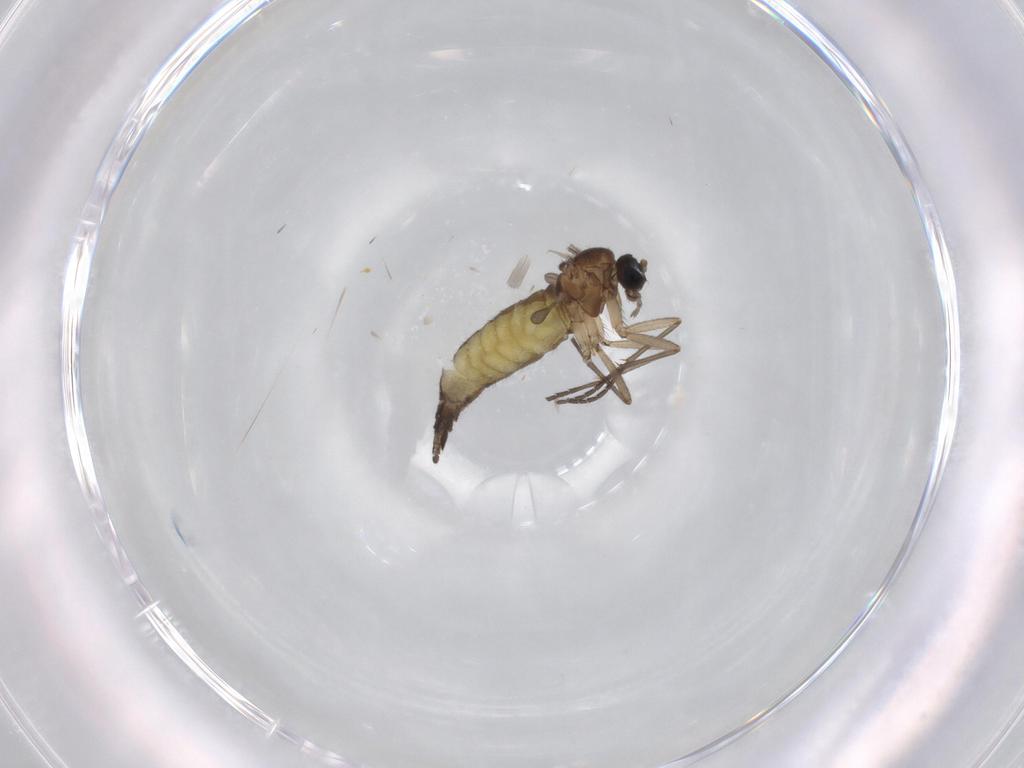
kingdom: Animalia
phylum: Arthropoda
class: Insecta
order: Diptera
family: Sciaridae
